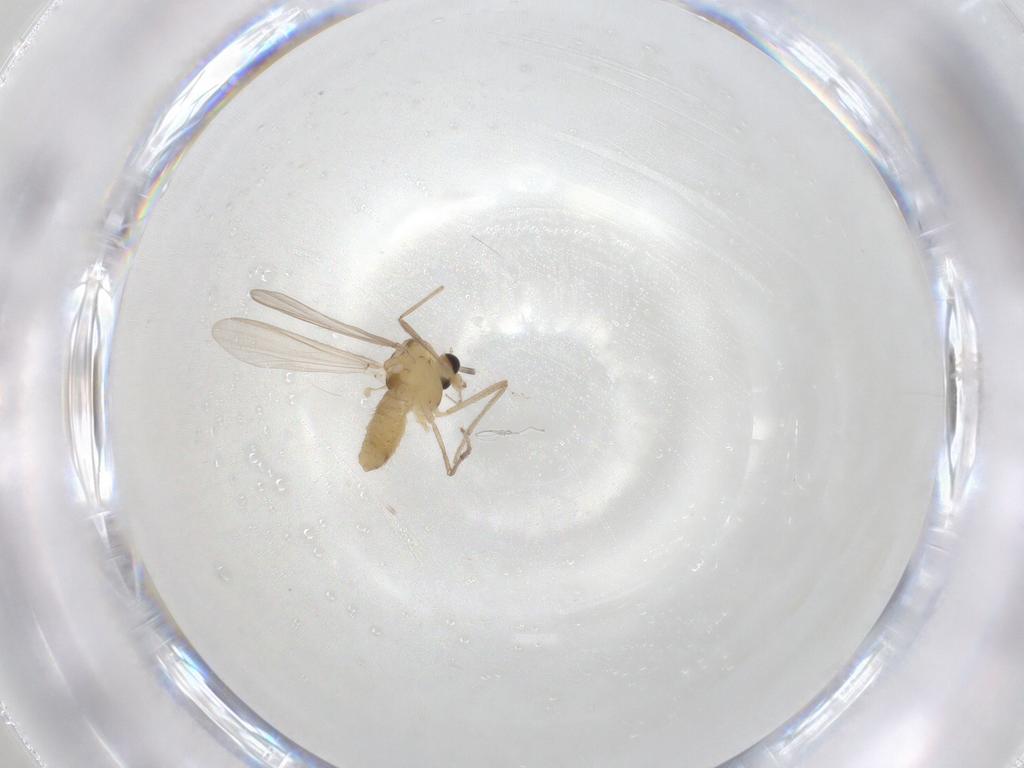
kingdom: Animalia
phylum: Arthropoda
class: Insecta
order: Diptera
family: Chironomidae
